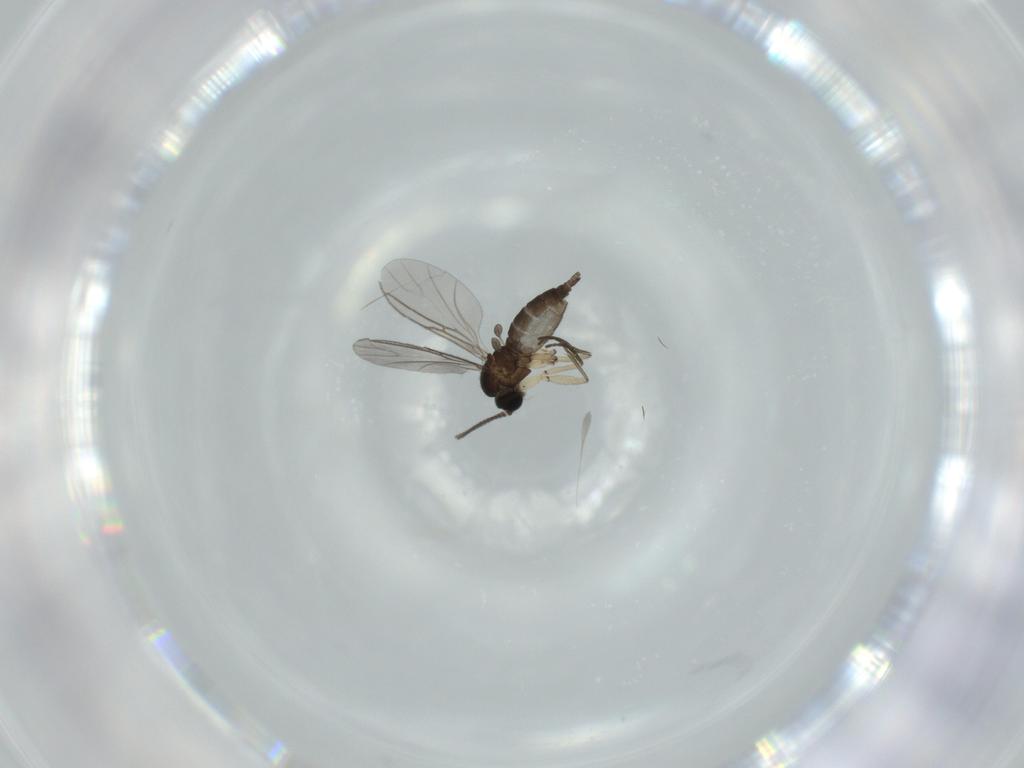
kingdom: Animalia
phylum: Arthropoda
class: Insecta
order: Diptera
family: Sciaridae
